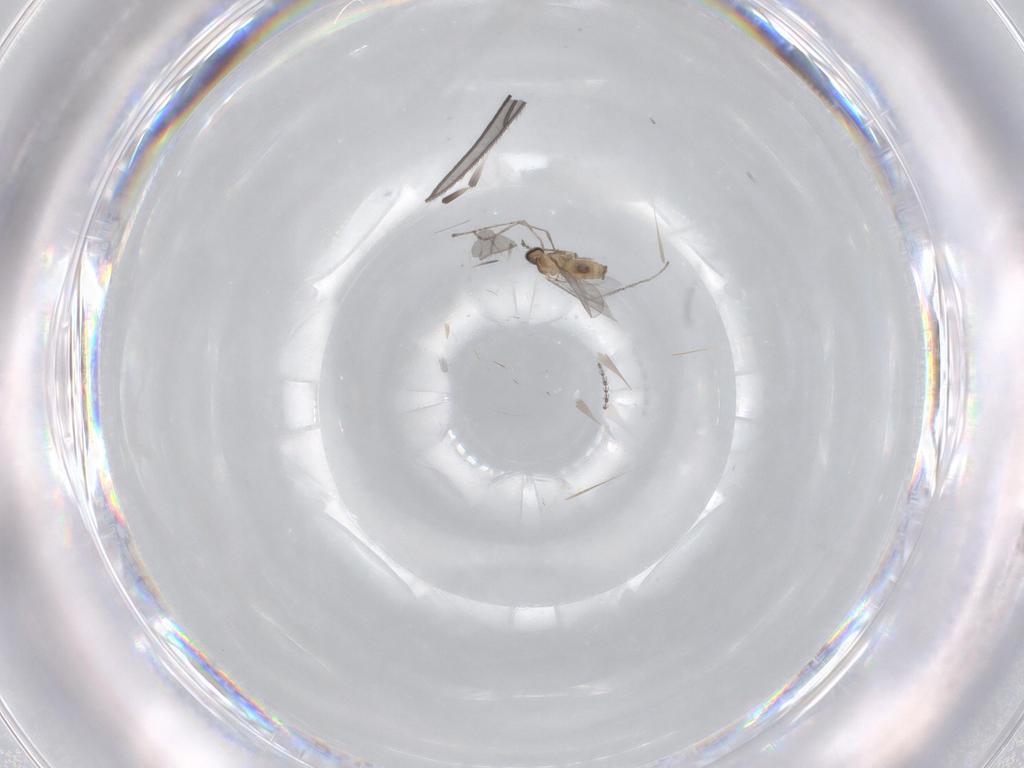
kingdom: Animalia
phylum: Arthropoda
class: Insecta
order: Diptera
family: Cecidomyiidae
